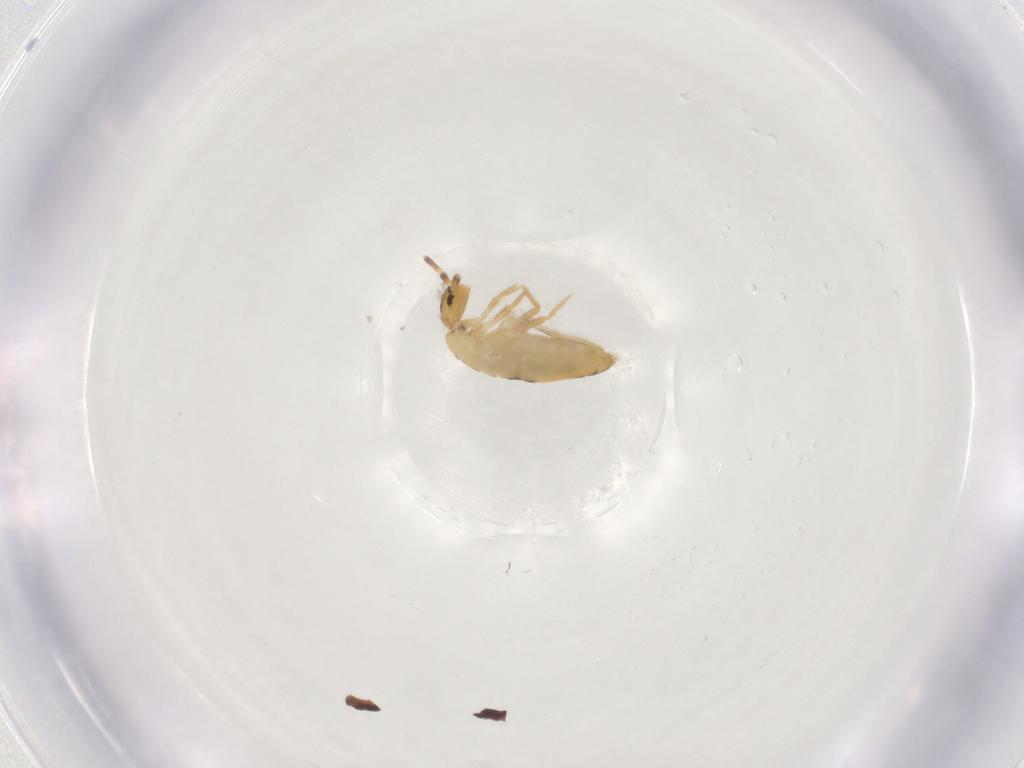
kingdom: Animalia
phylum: Arthropoda
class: Collembola
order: Entomobryomorpha
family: Entomobryidae
